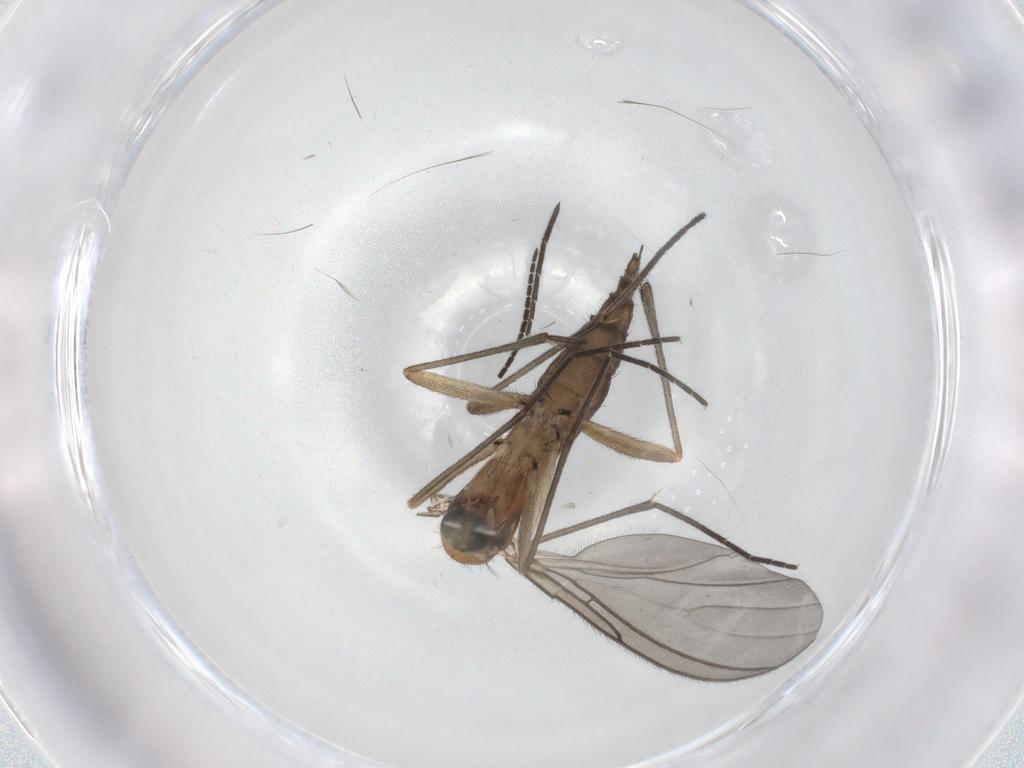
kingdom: Animalia
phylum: Arthropoda
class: Insecta
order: Diptera
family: Sciaridae
